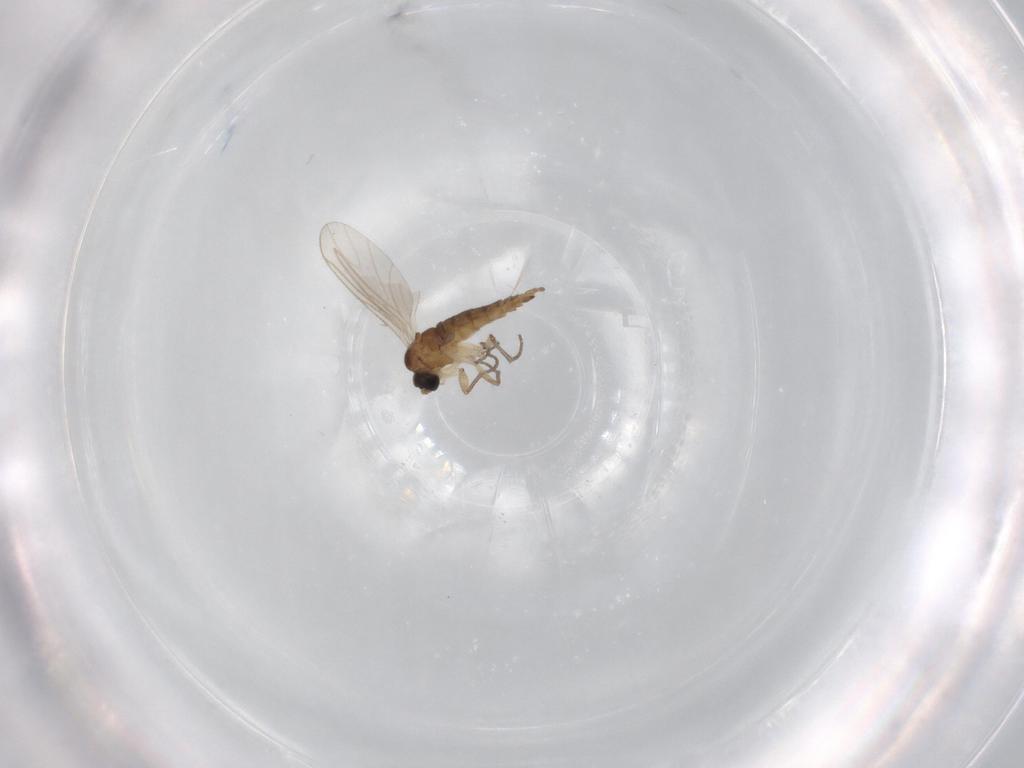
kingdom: Animalia
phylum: Arthropoda
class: Insecta
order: Diptera
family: Sciaridae
